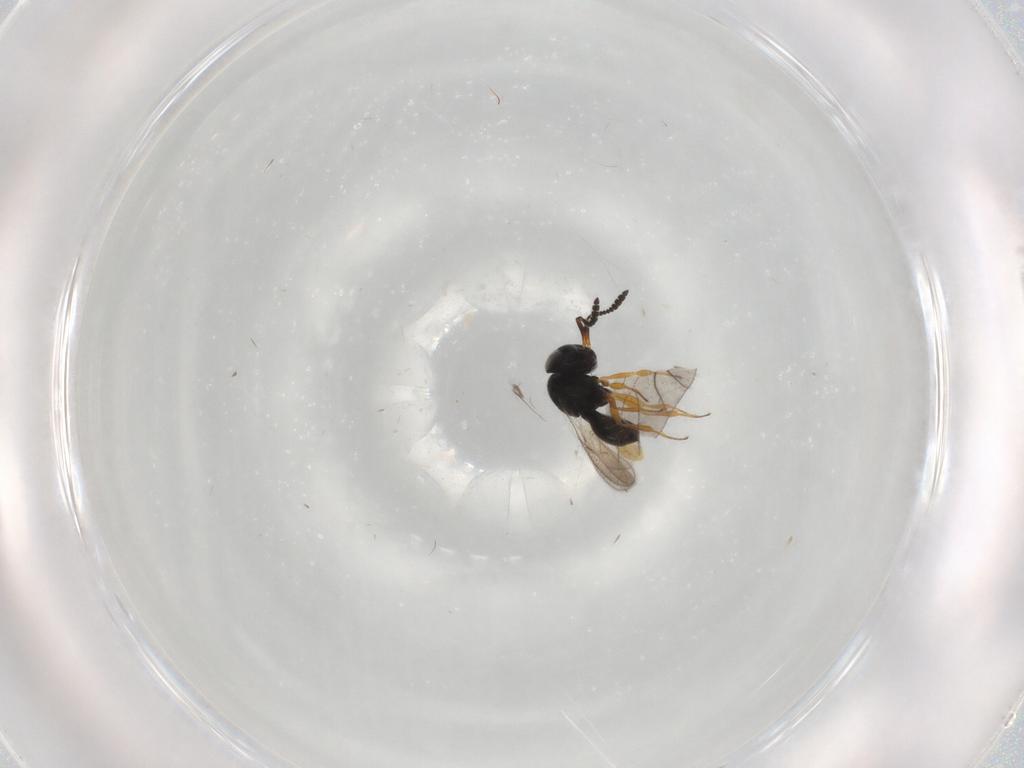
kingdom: Animalia
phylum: Arthropoda
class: Insecta
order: Hymenoptera
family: Scelionidae
